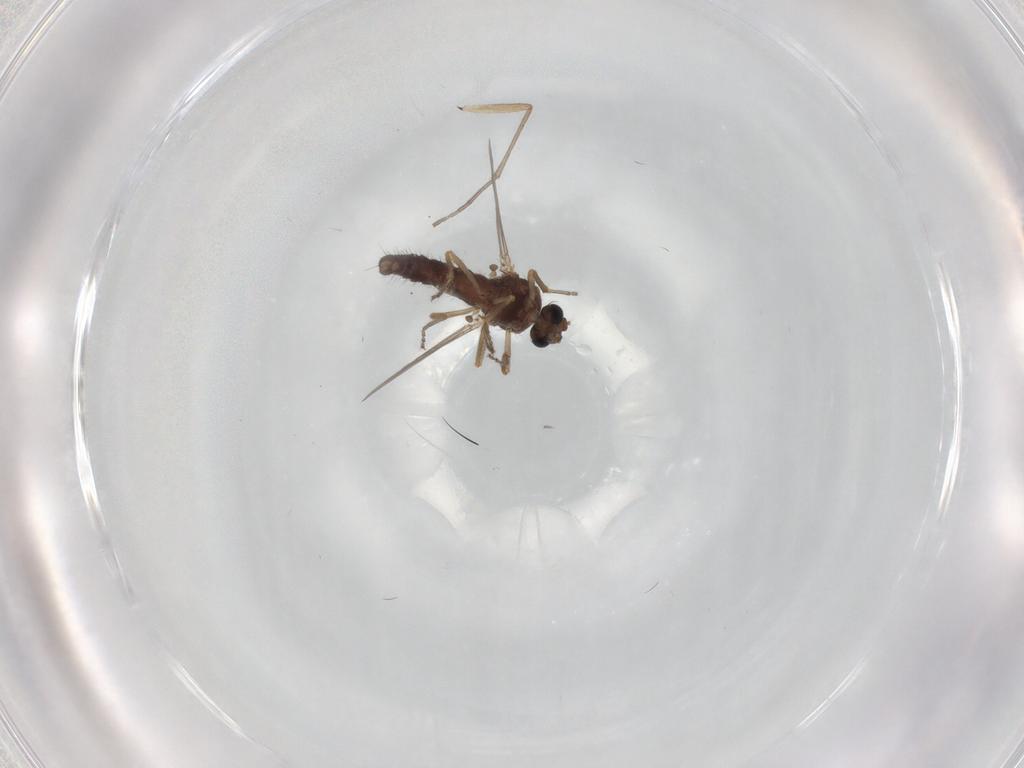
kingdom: Animalia
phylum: Arthropoda
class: Insecta
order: Diptera
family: Ceratopogonidae
